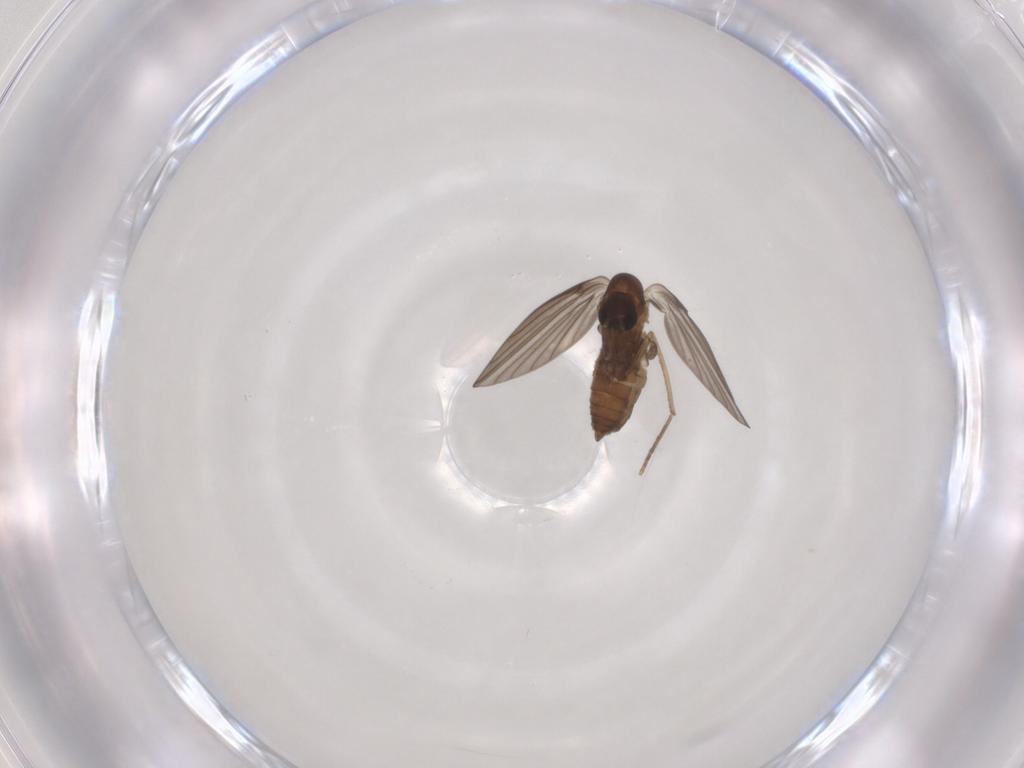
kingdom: Animalia
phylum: Arthropoda
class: Insecta
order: Diptera
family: Psychodidae
